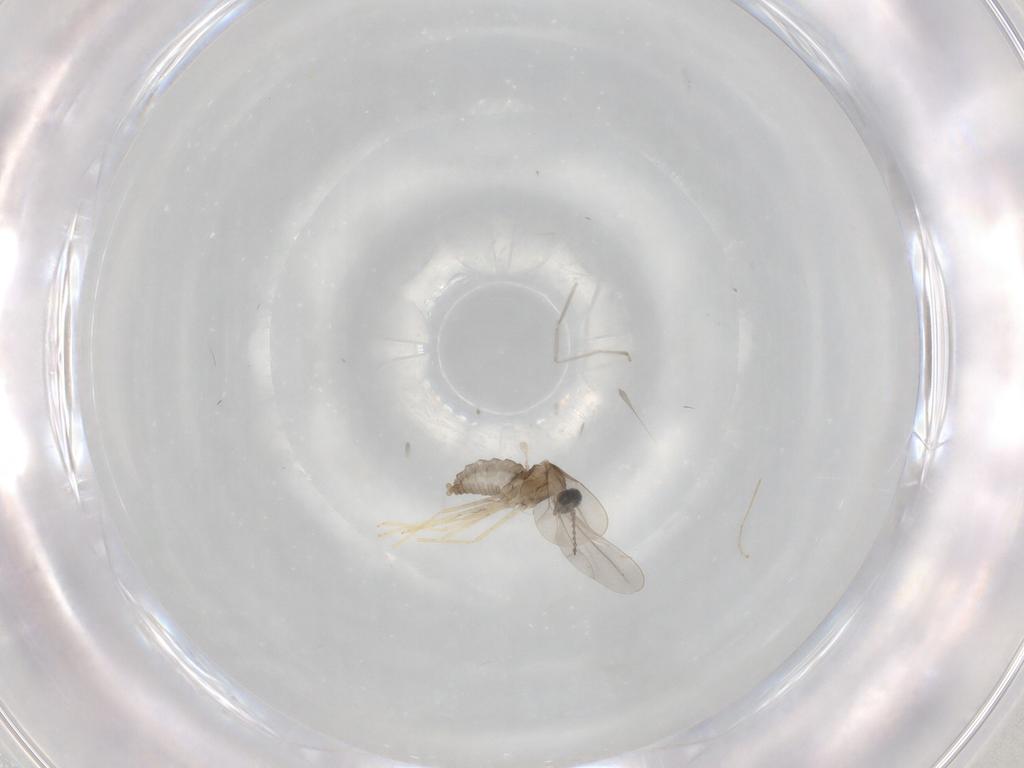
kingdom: Animalia
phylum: Arthropoda
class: Insecta
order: Diptera
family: Cecidomyiidae
